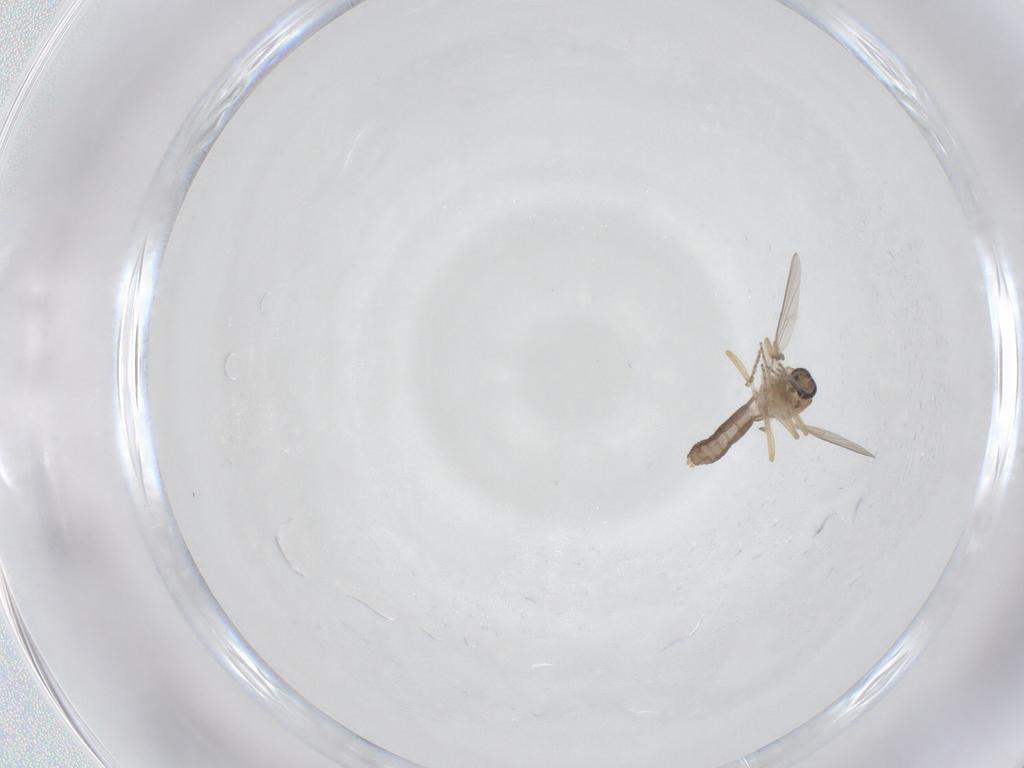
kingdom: Animalia
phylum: Arthropoda
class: Insecta
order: Diptera
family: Ceratopogonidae
